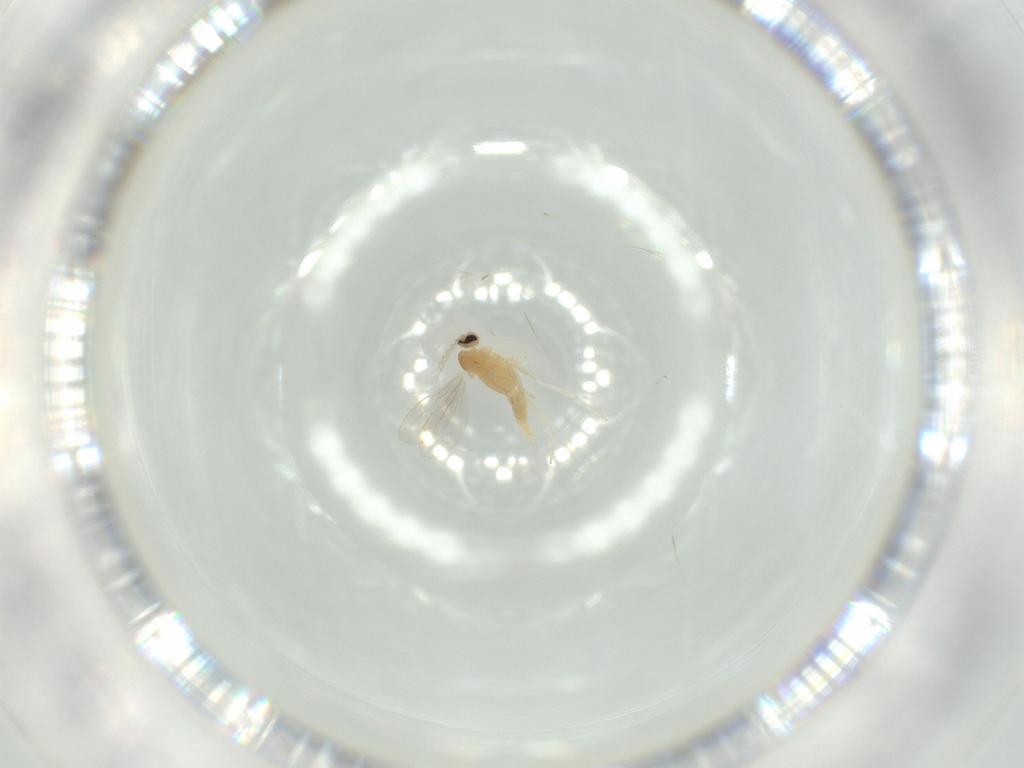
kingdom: Animalia
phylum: Arthropoda
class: Insecta
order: Diptera
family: Cecidomyiidae
